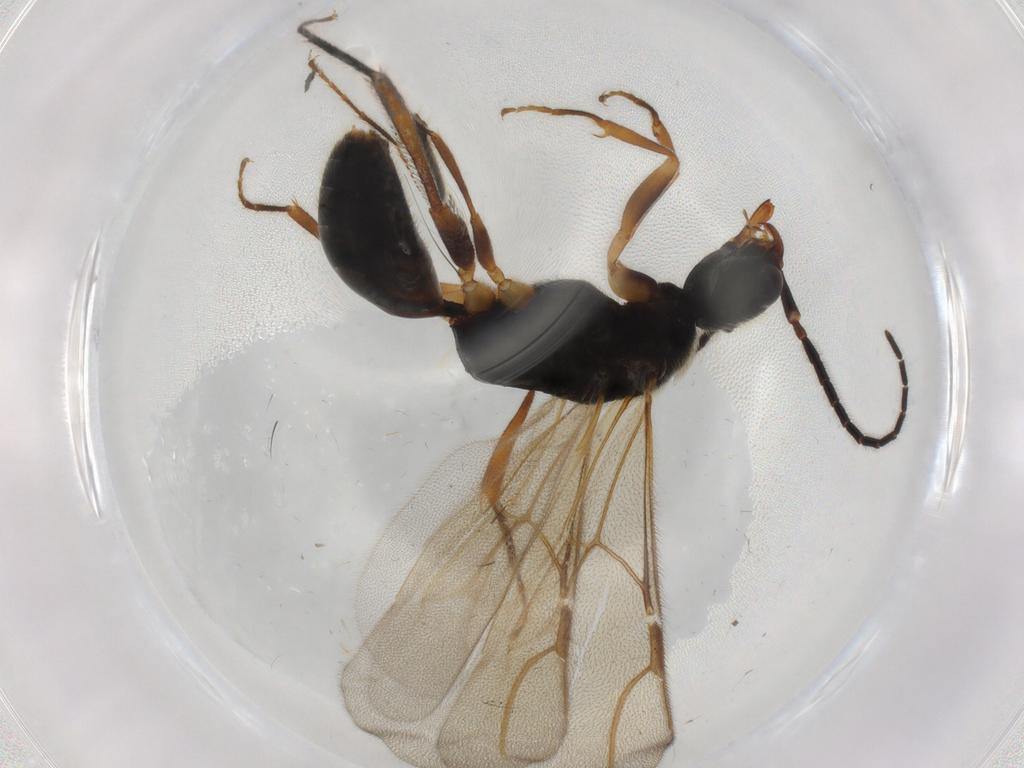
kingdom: Animalia
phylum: Arthropoda
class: Insecta
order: Hymenoptera
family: Bethylidae
